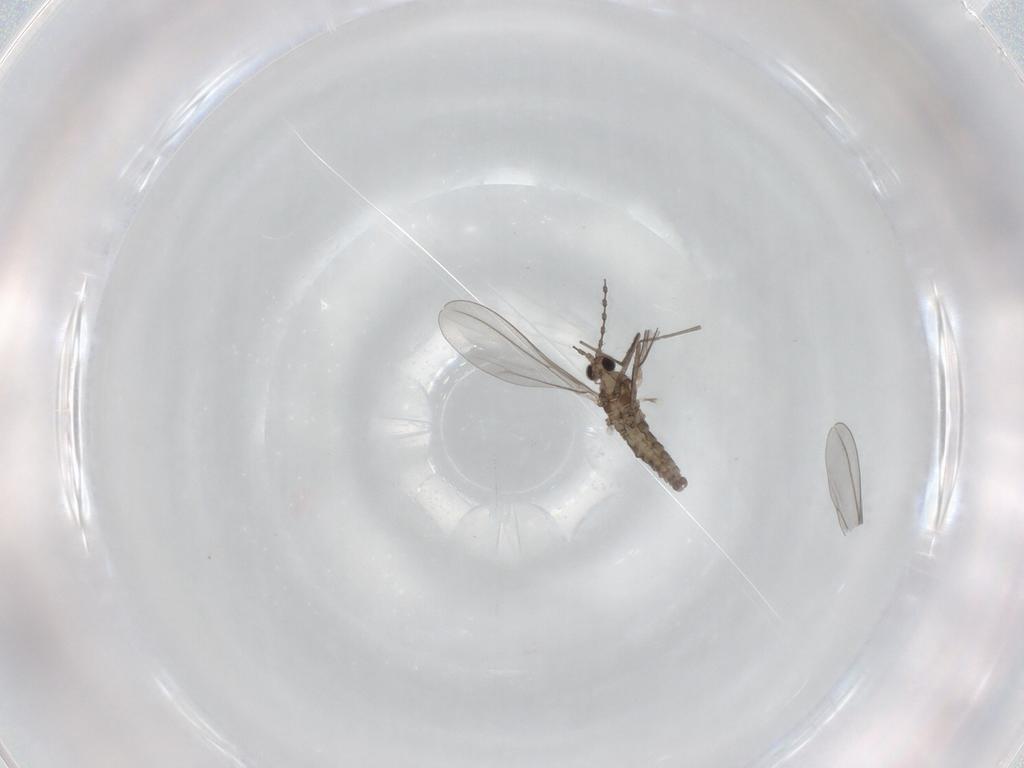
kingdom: Animalia
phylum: Arthropoda
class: Insecta
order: Diptera
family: Cecidomyiidae
